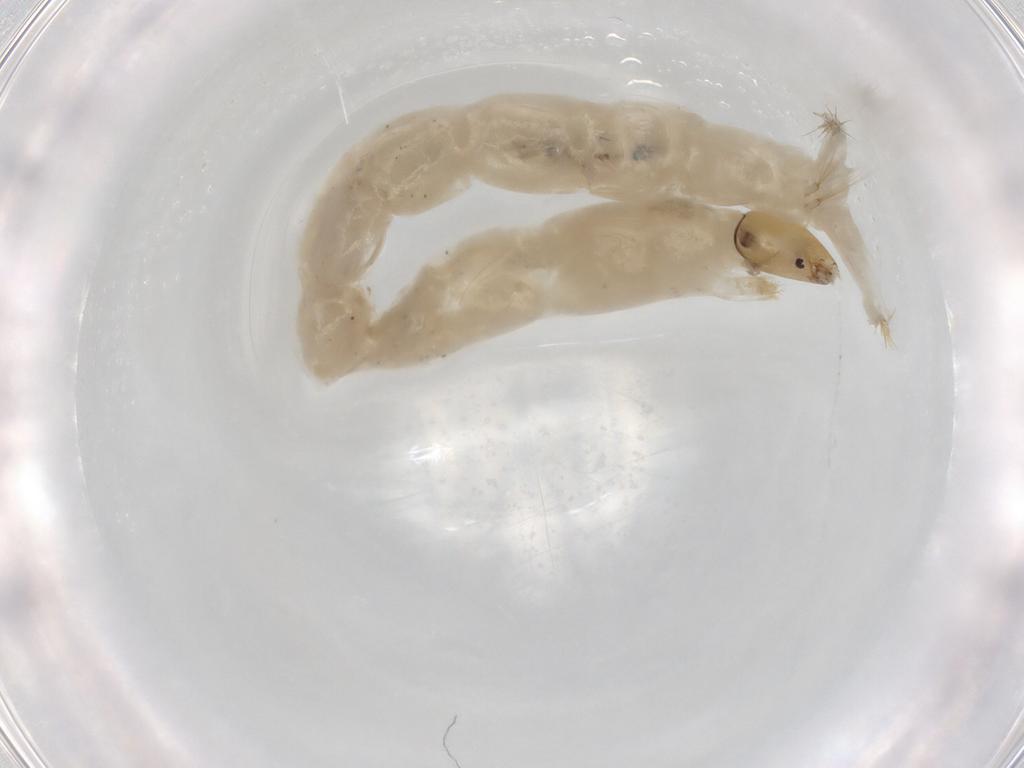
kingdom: Animalia
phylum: Arthropoda
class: Insecta
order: Diptera
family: Chironomidae
